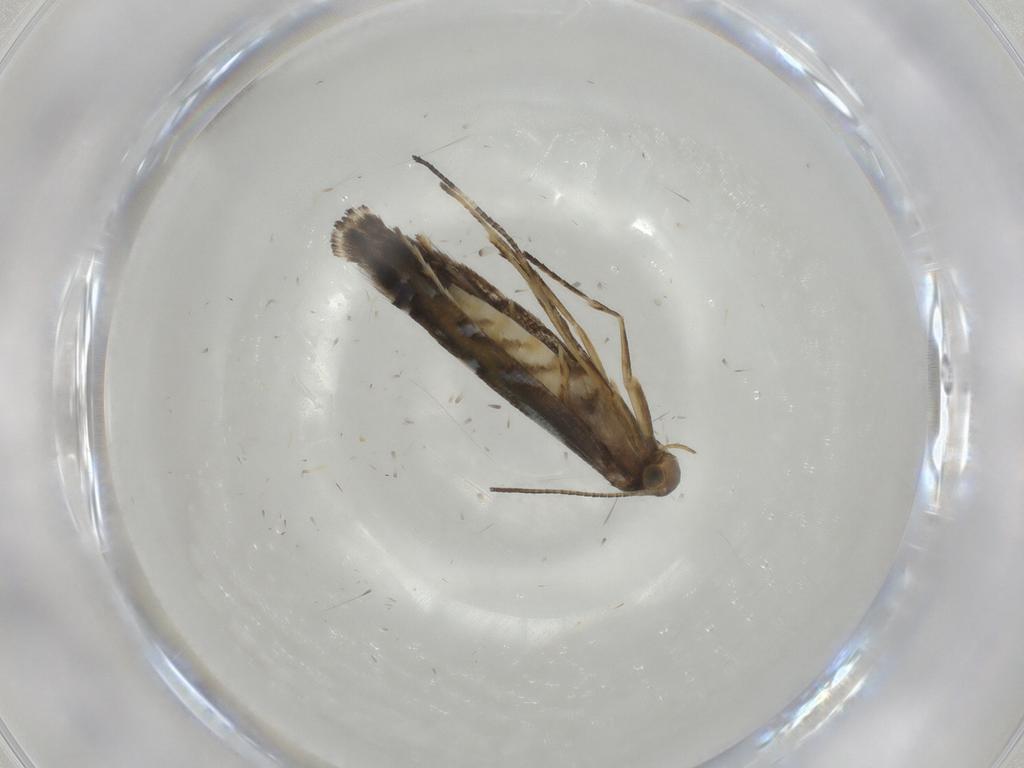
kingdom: Animalia
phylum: Arthropoda
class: Insecta
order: Lepidoptera
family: Gracillariidae
